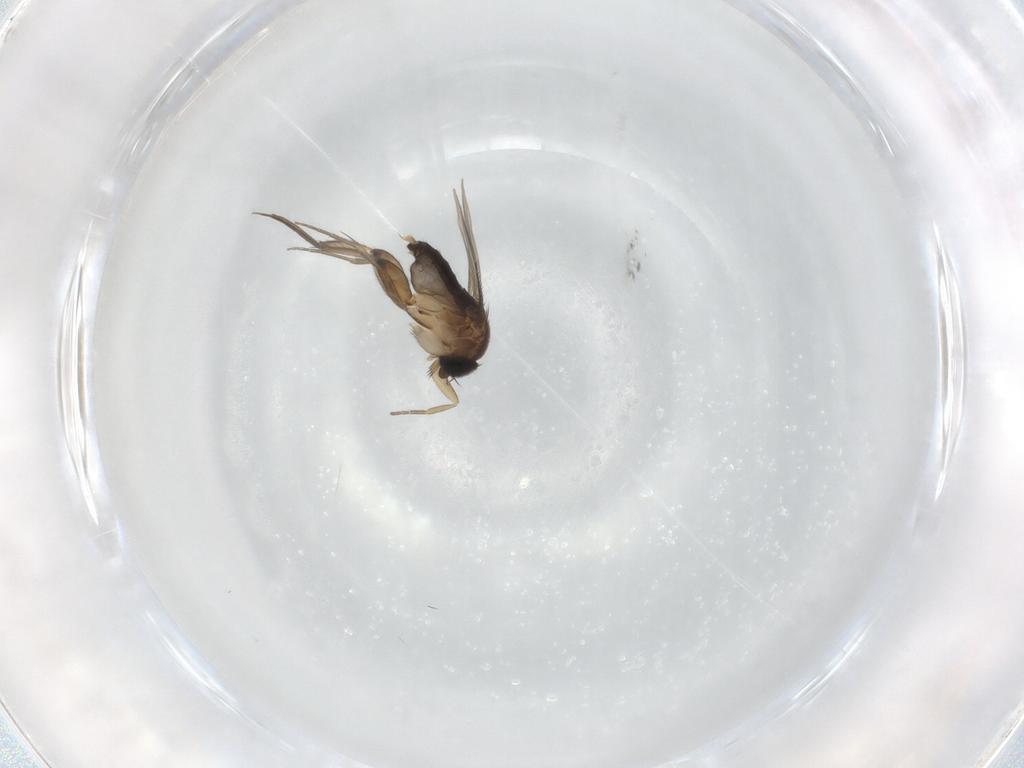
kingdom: Animalia
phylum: Arthropoda
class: Insecta
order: Diptera
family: Phoridae
